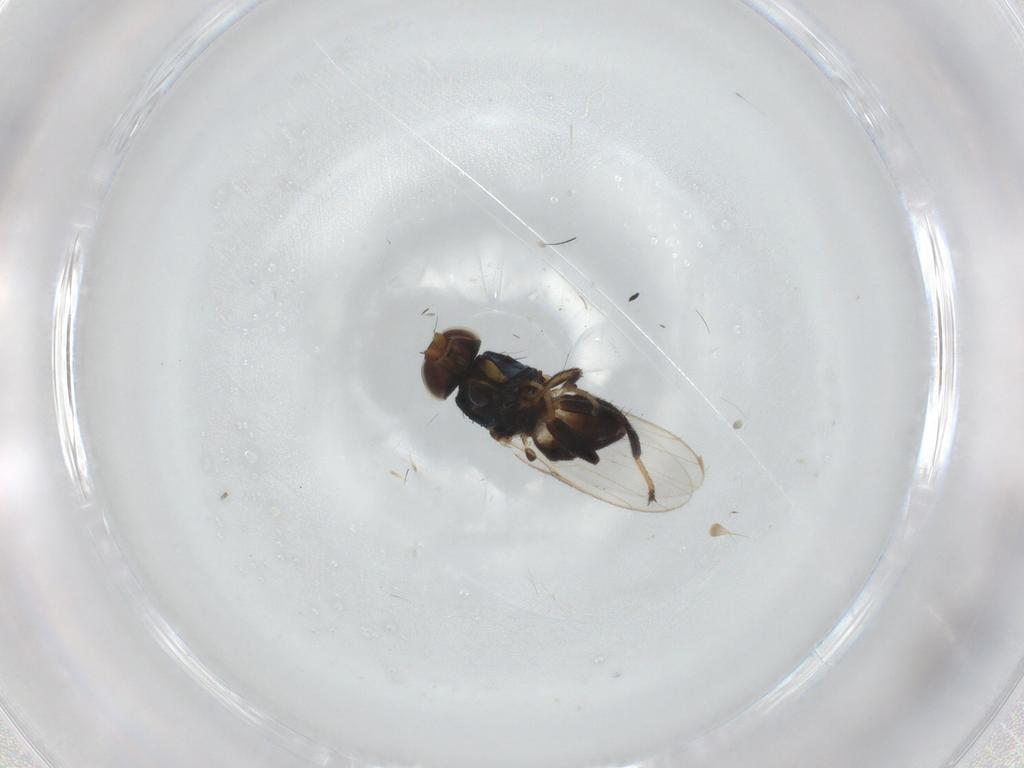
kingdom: Animalia
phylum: Arthropoda
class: Insecta
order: Diptera
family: Chloropidae
